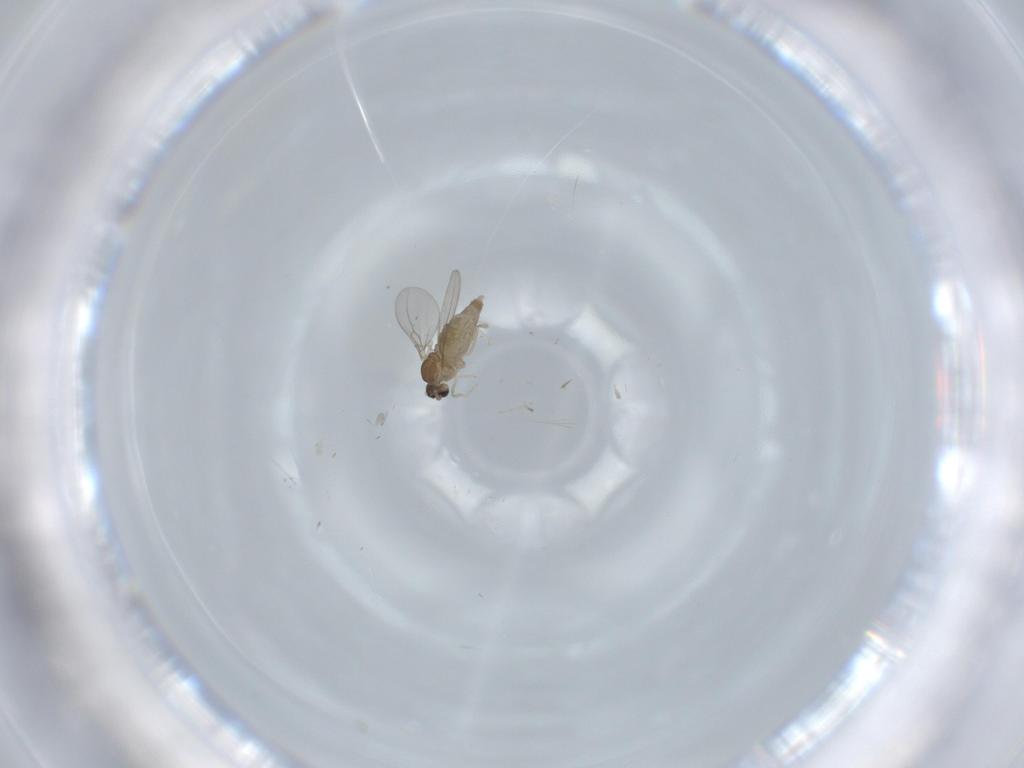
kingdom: Animalia
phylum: Arthropoda
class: Insecta
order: Diptera
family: Cecidomyiidae
